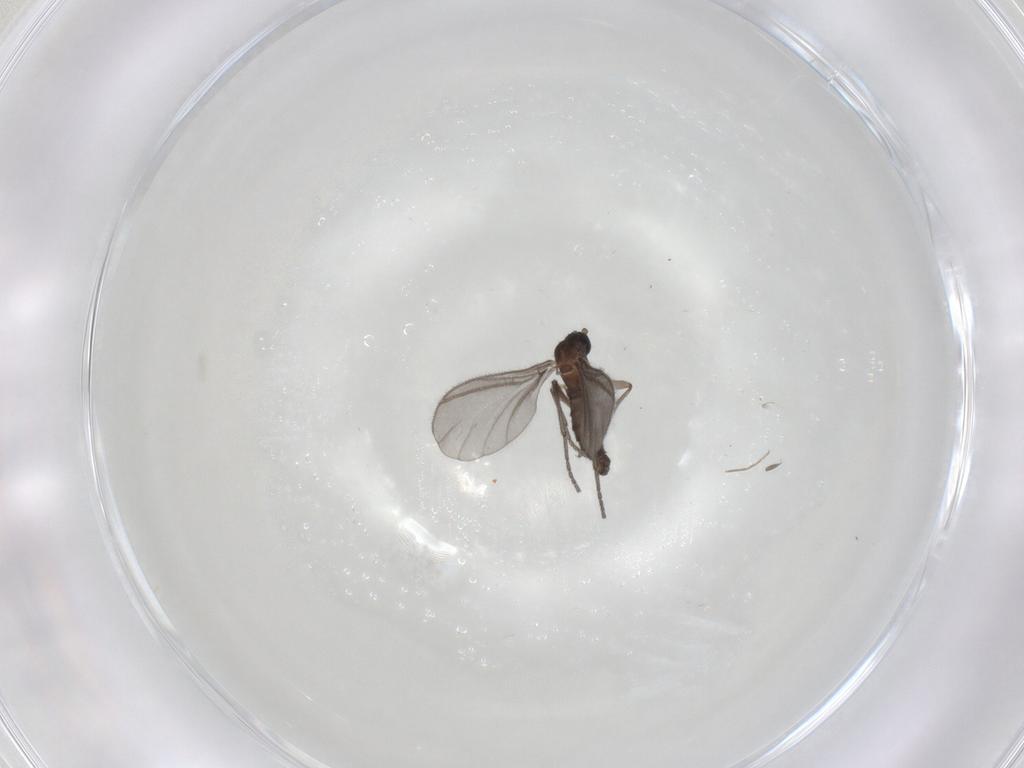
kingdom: Animalia
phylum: Arthropoda
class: Insecta
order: Diptera
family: Sciaridae
